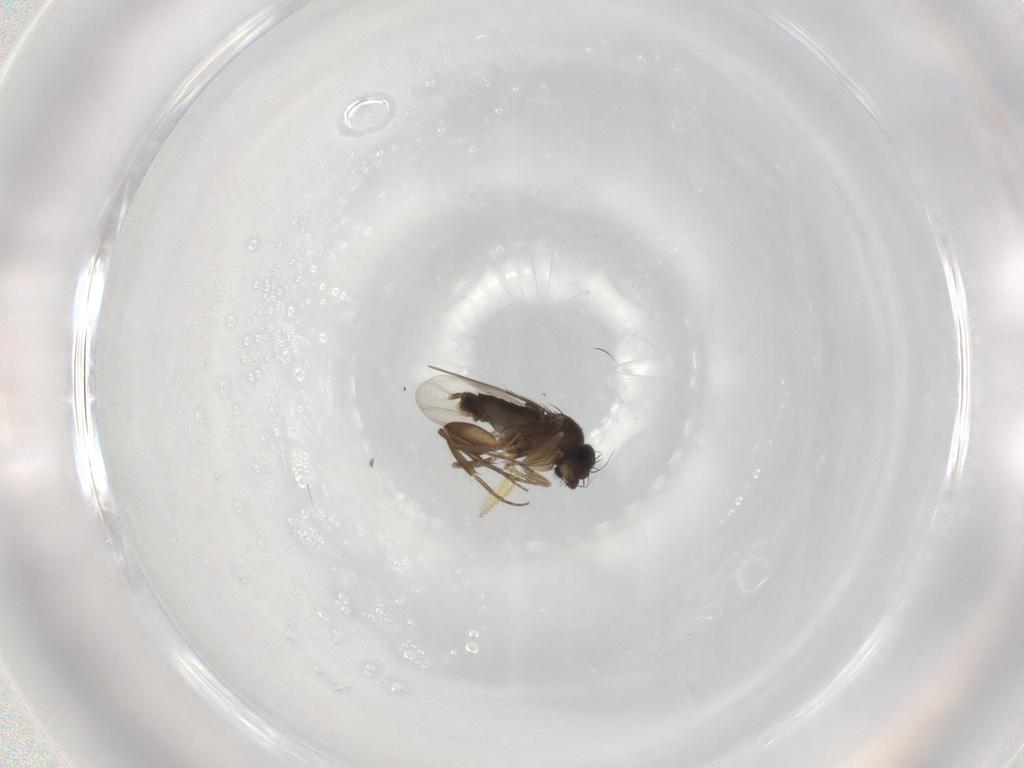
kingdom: Animalia
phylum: Arthropoda
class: Insecta
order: Diptera
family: Phoridae
